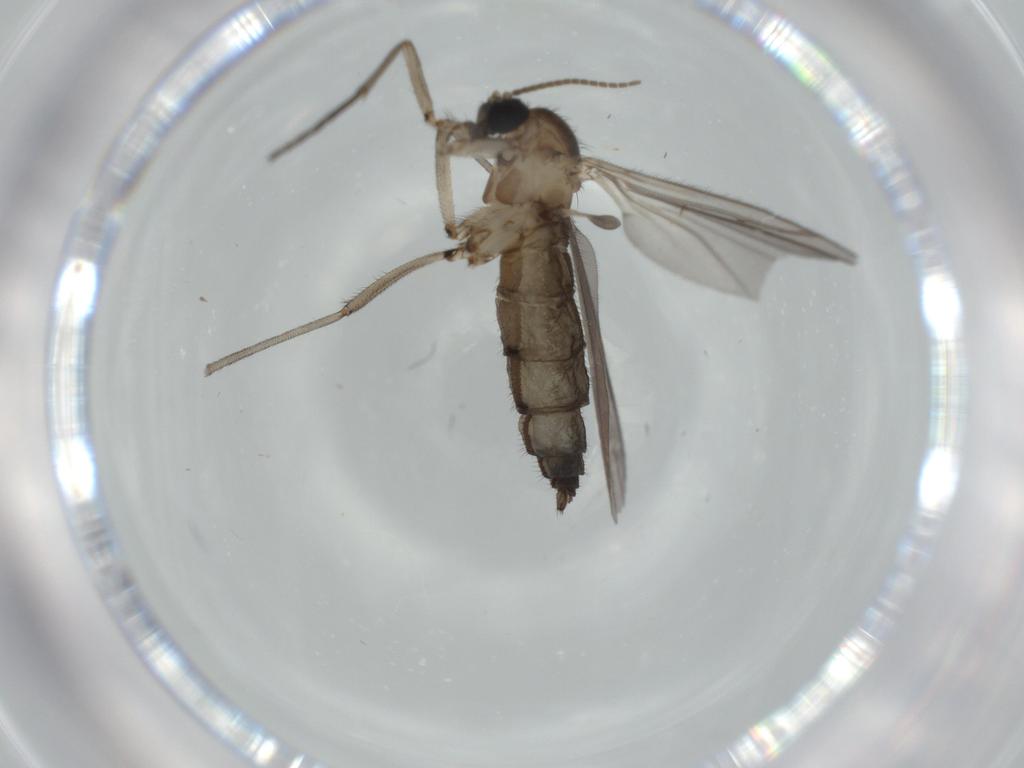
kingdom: Animalia
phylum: Arthropoda
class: Insecta
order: Diptera
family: Sciaridae
